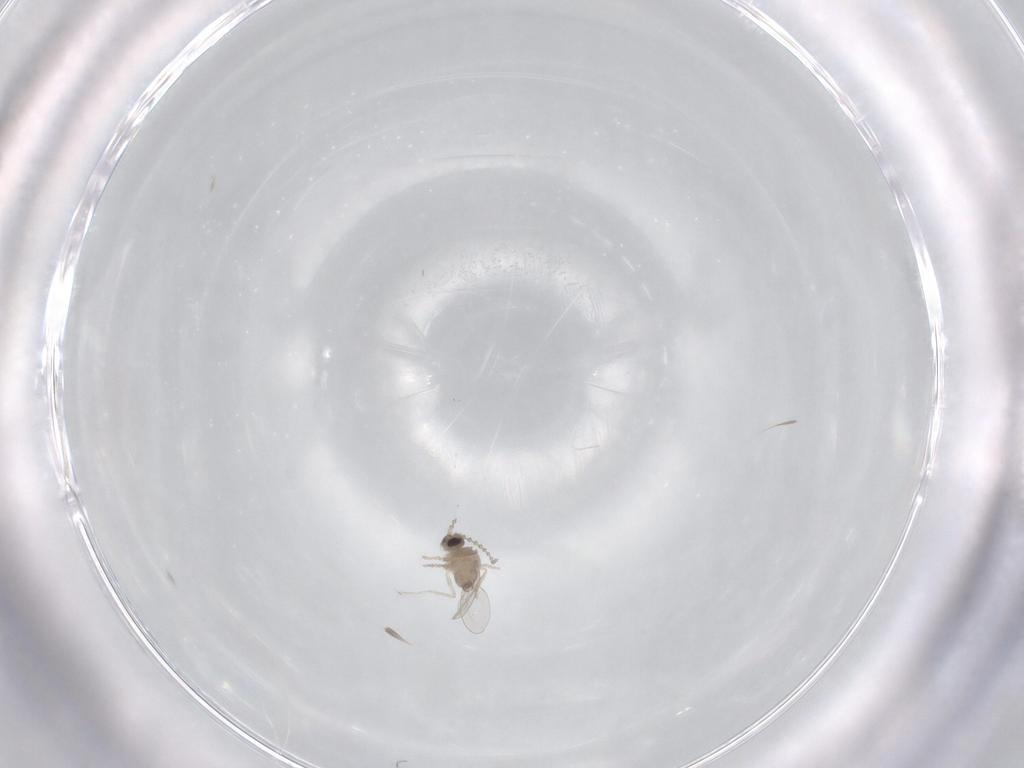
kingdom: Animalia
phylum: Arthropoda
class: Insecta
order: Diptera
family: Cecidomyiidae
